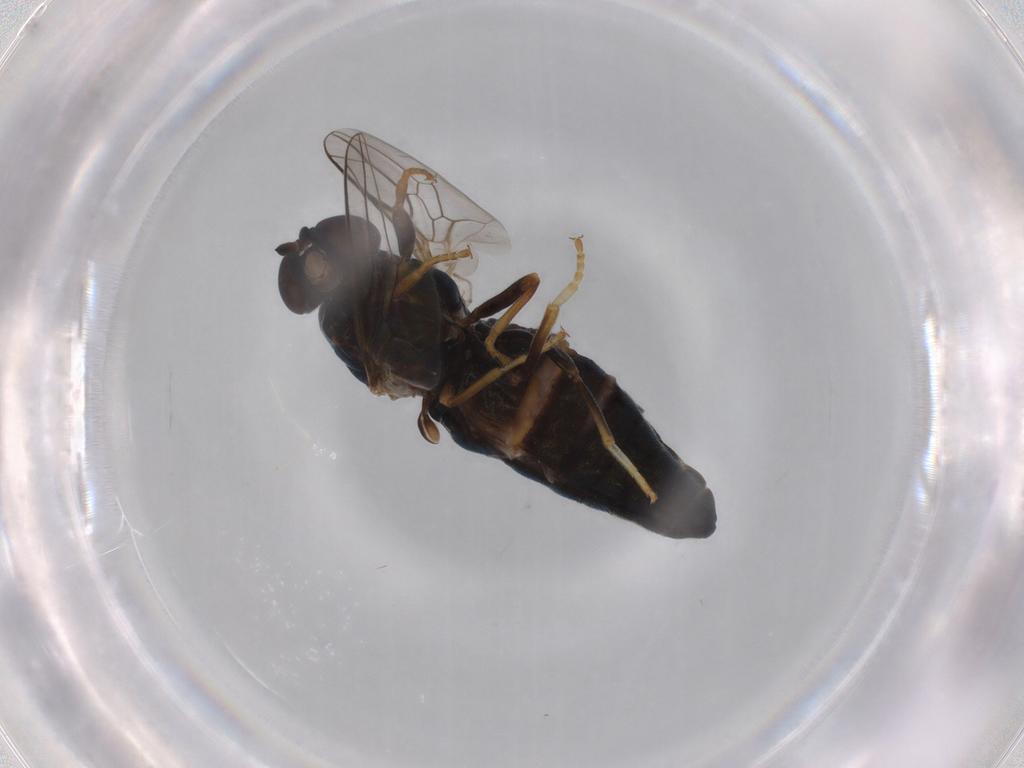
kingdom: Animalia
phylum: Arthropoda
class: Insecta
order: Diptera
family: Scenopinidae
